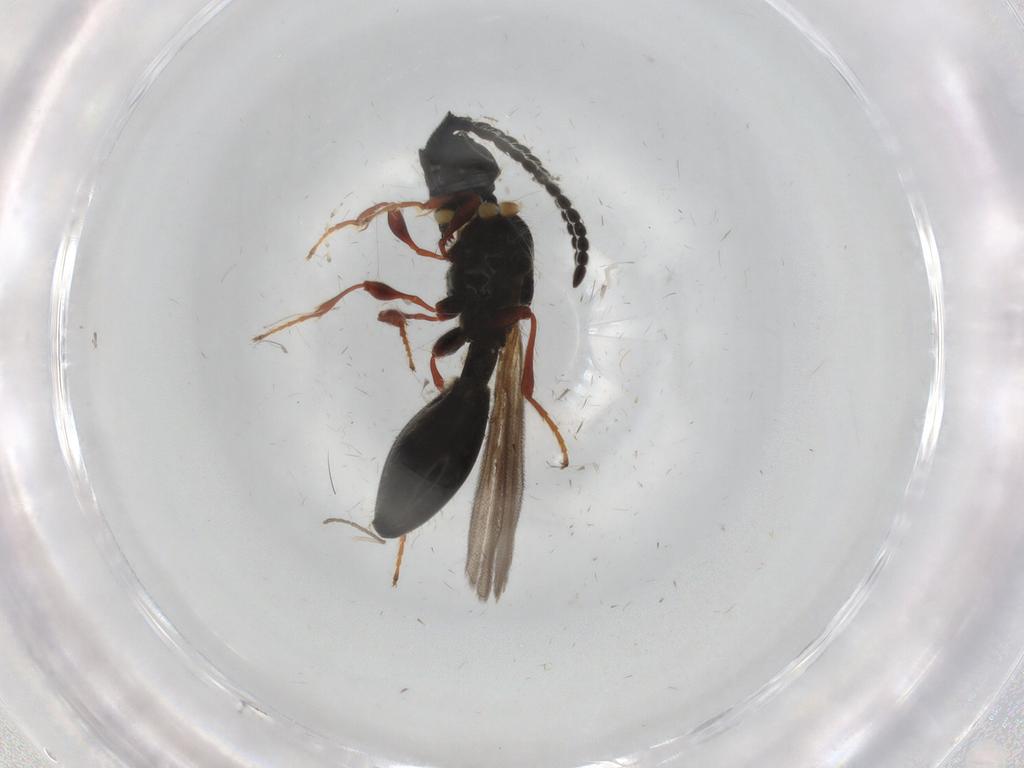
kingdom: Animalia
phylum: Arthropoda
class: Insecta
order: Hymenoptera
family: Diapriidae
